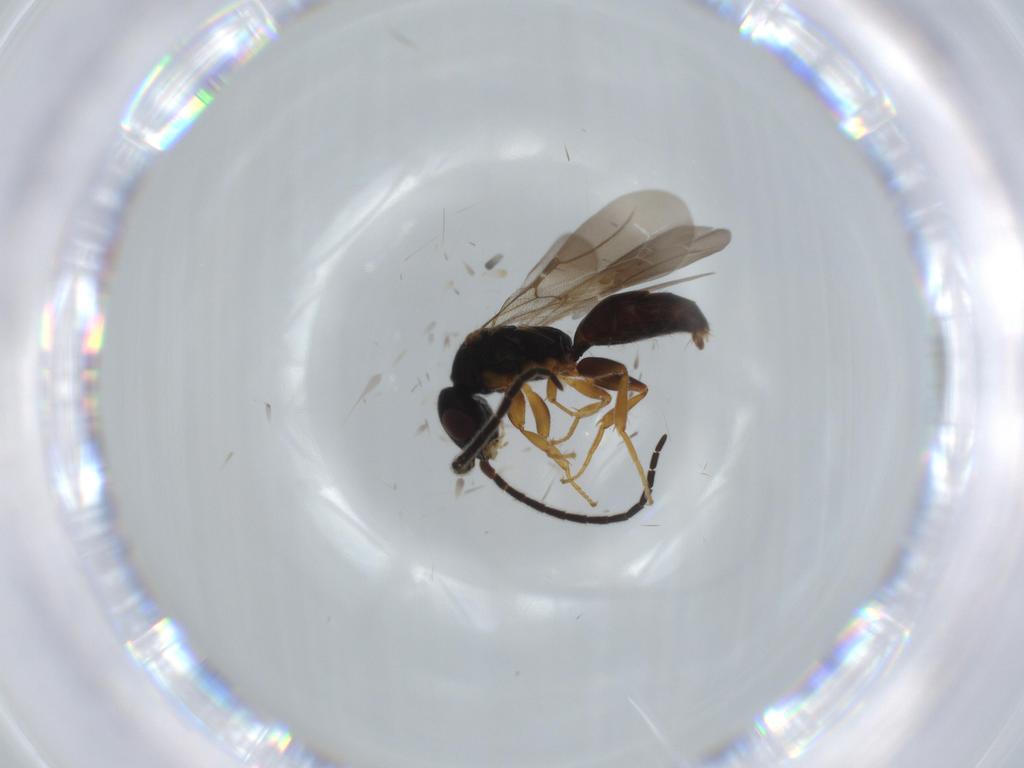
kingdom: Animalia
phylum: Arthropoda
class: Insecta
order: Hymenoptera
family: Bethylidae
